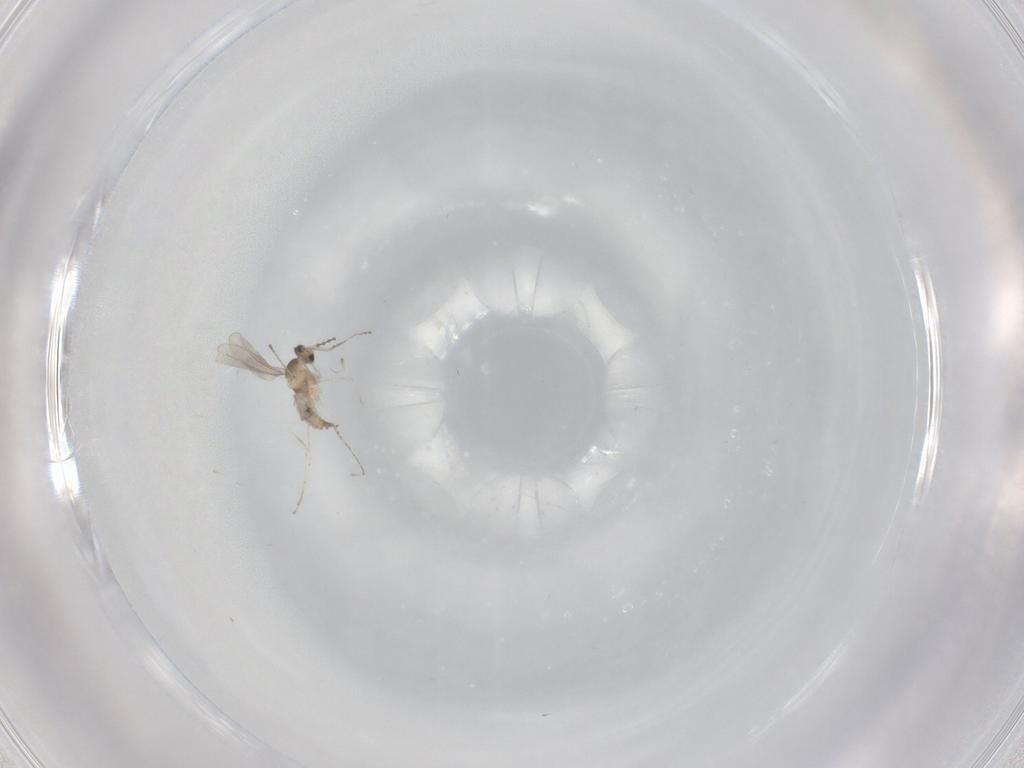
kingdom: Animalia
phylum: Arthropoda
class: Insecta
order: Diptera
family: Cecidomyiidae
